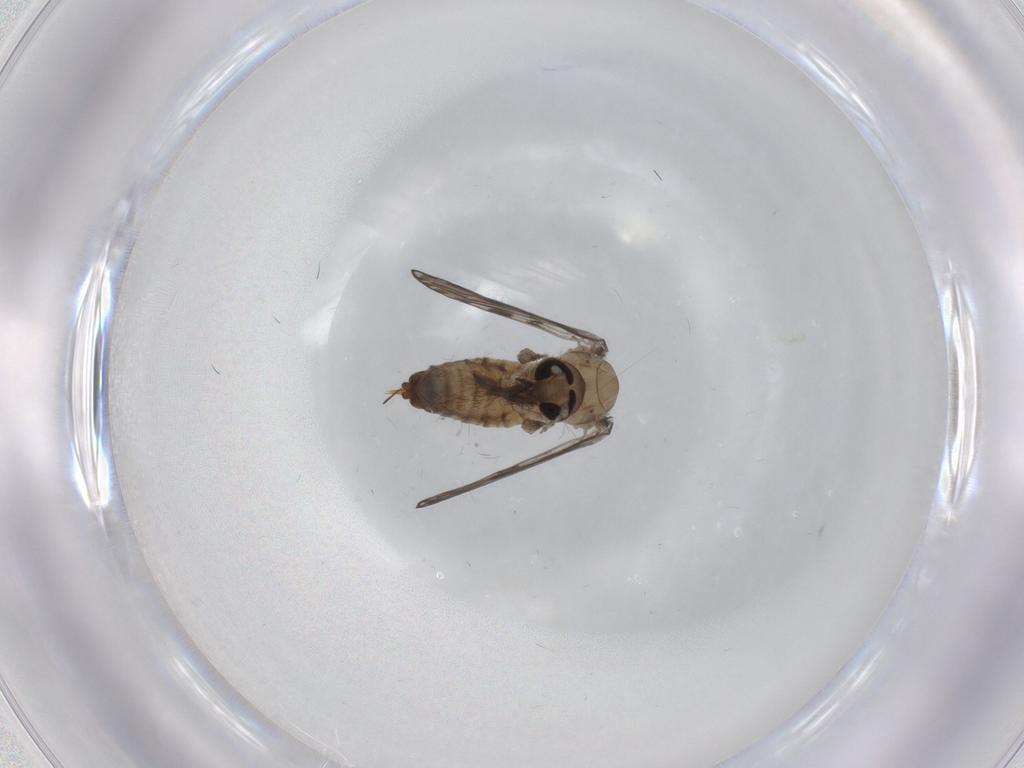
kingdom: Animalia
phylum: Arthropoda
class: Insecta
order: Diptera
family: Psychodidae
